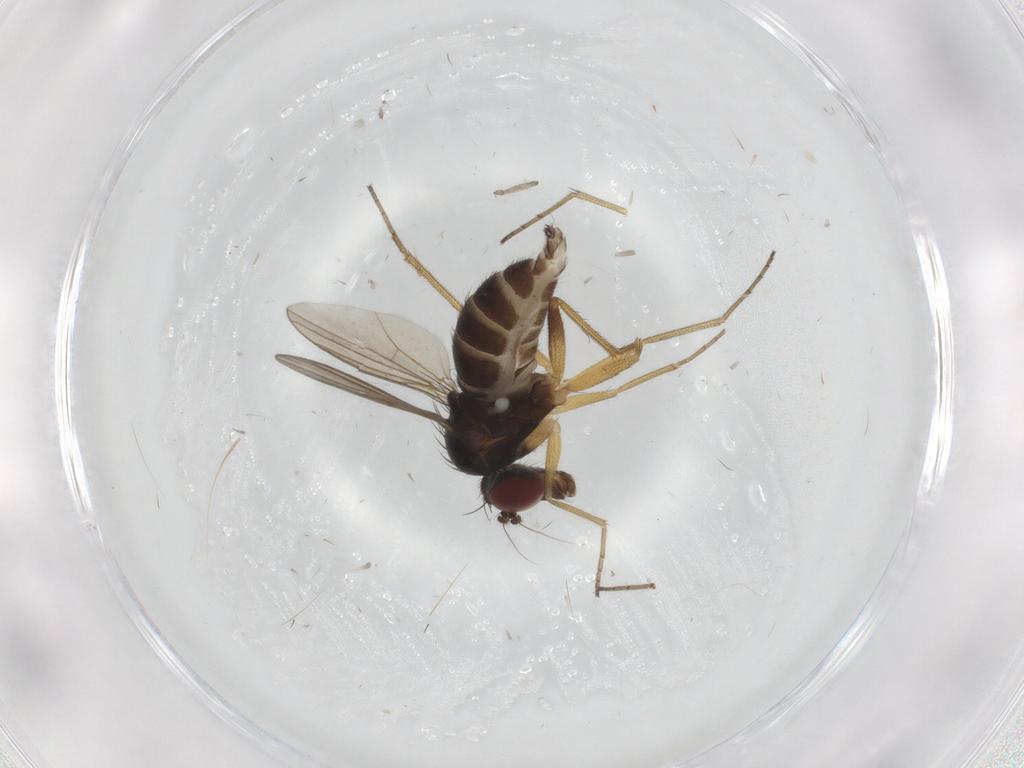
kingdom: Animalia
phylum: Arthropoda
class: Insecta
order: Diptera
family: Dolichopodidae
